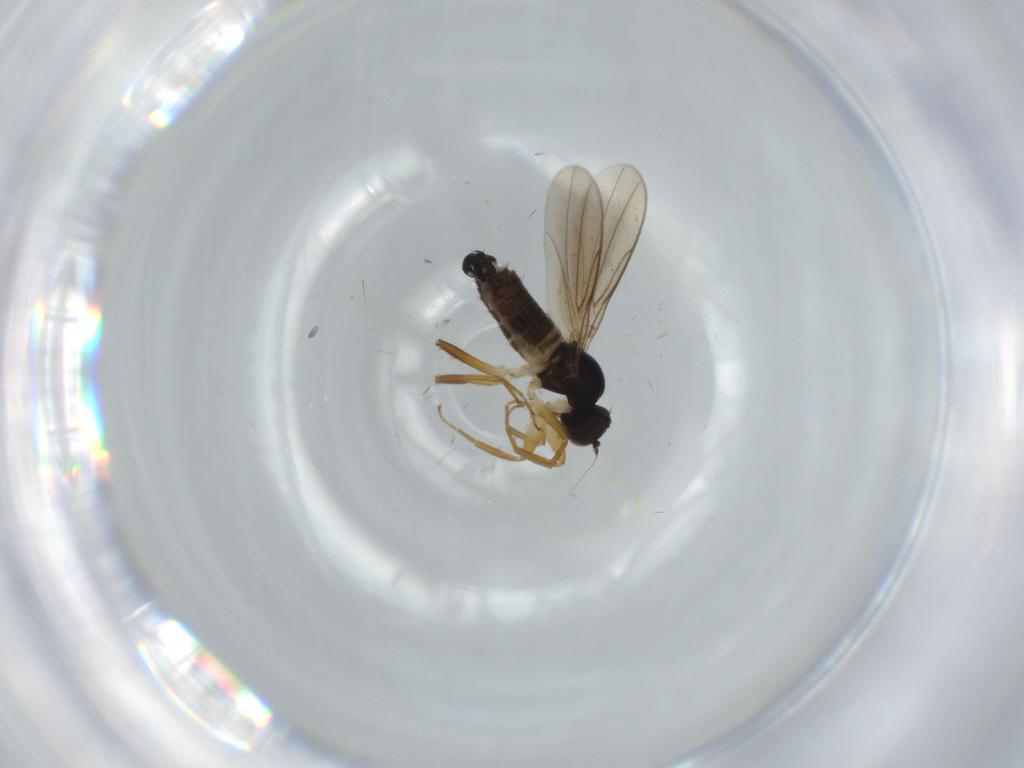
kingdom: Animalia
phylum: Arthropoda
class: Insecta
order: Diptera
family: Hybotidae
